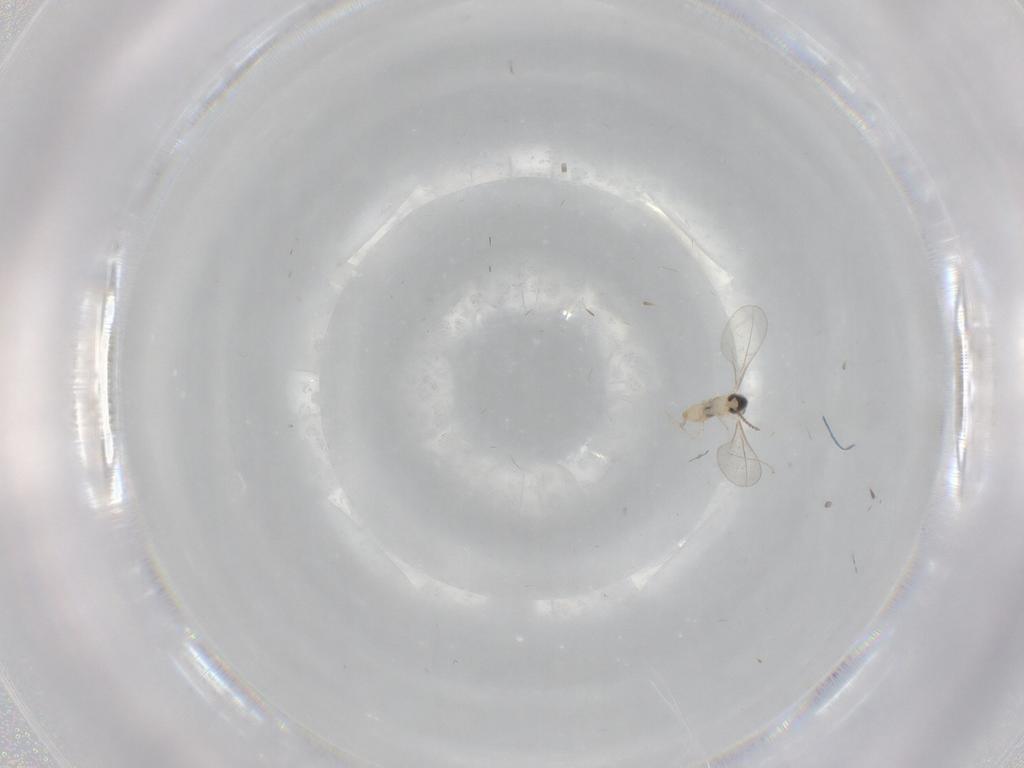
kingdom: Animalia
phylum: Arthropoda
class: Insecta
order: Diptera
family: Cecidomyiidae
